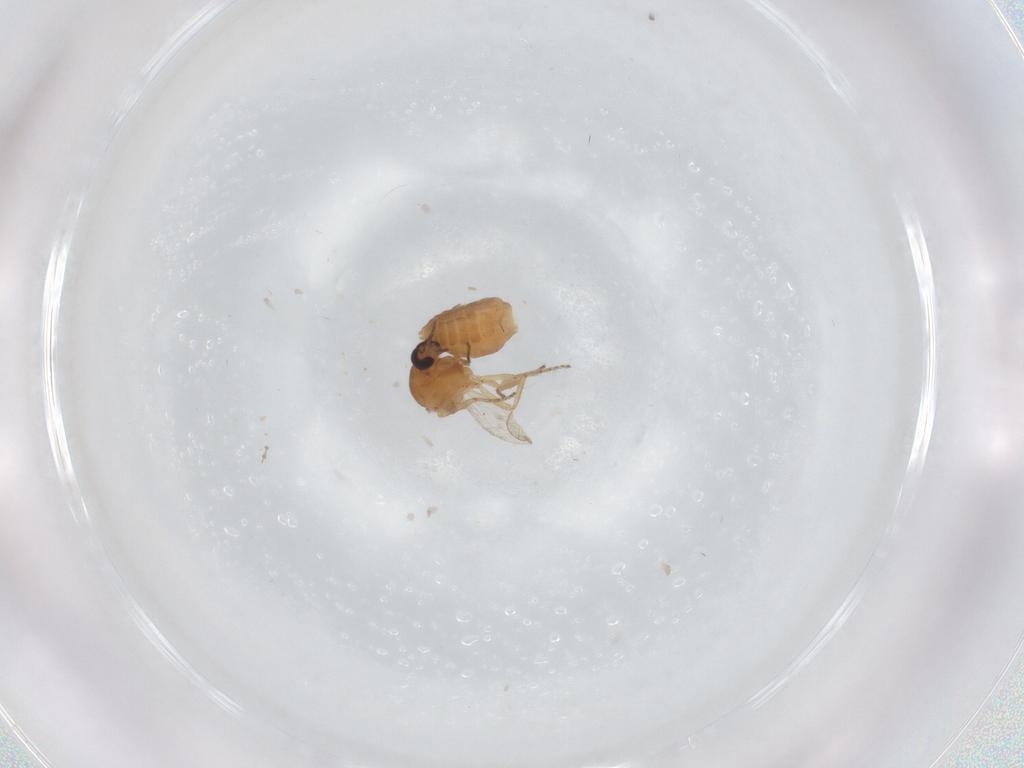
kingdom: Animalia
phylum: Arthropoda
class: Insecta
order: Diptera
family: Ceratopogonidae
